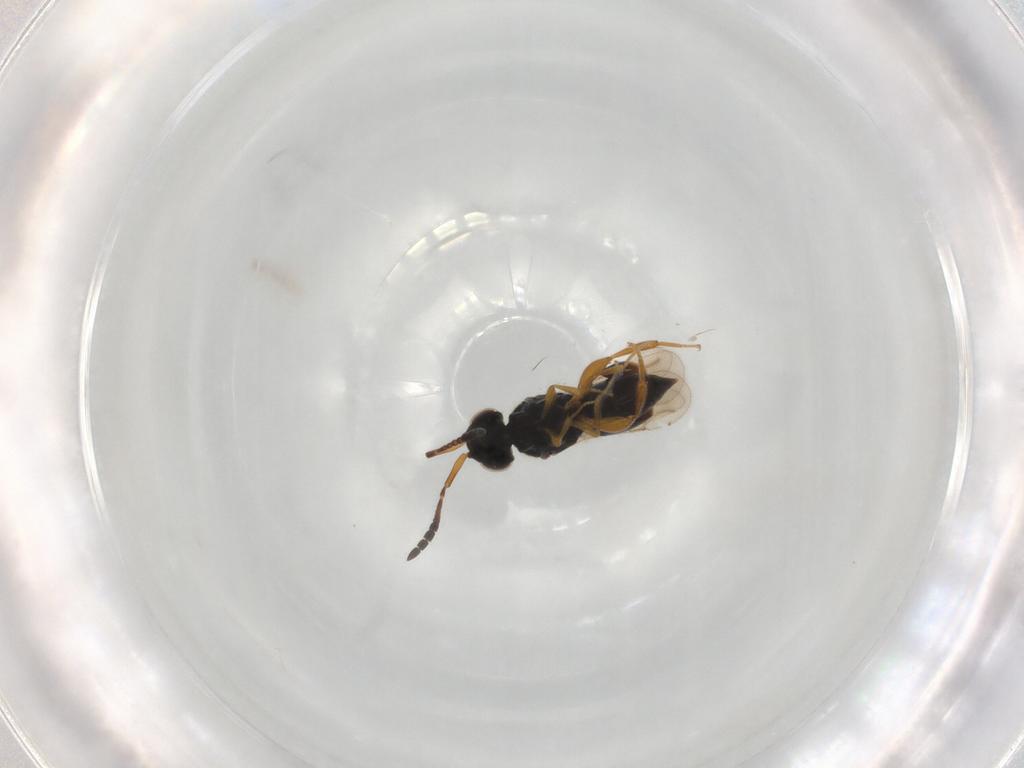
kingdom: Animalia
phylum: Arthropoda
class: Insecta
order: Hymenoptera
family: Ceraphronidae
